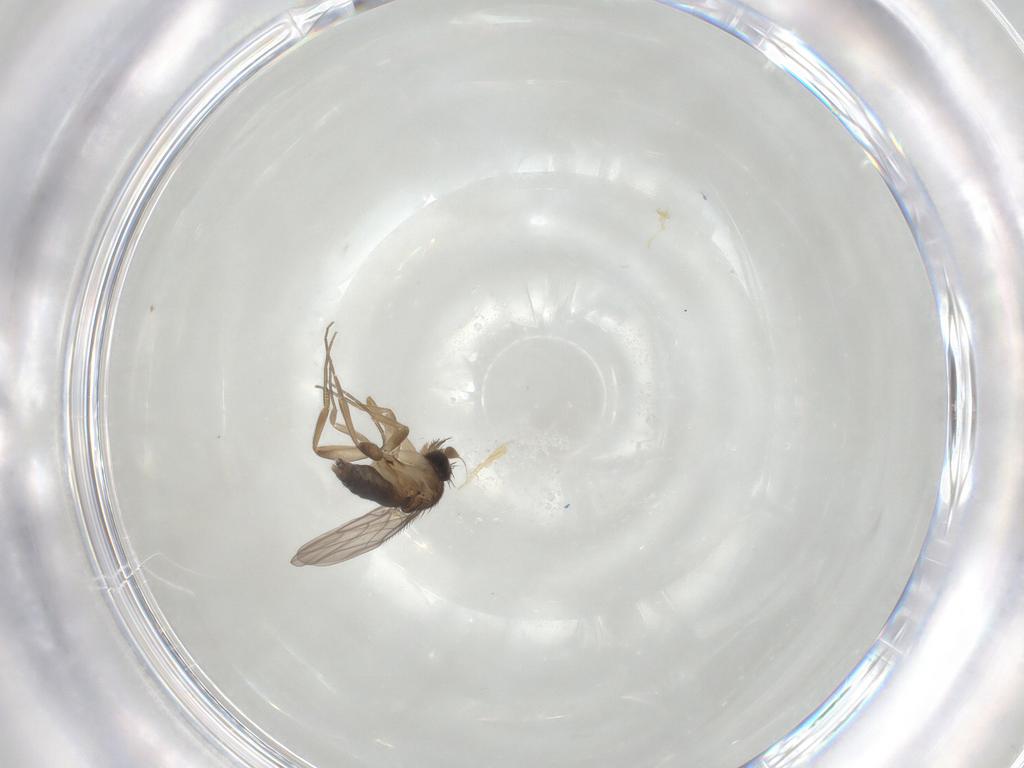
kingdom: Animalia
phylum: Arthropoda
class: Insecta
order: Diptera
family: Phoridae
